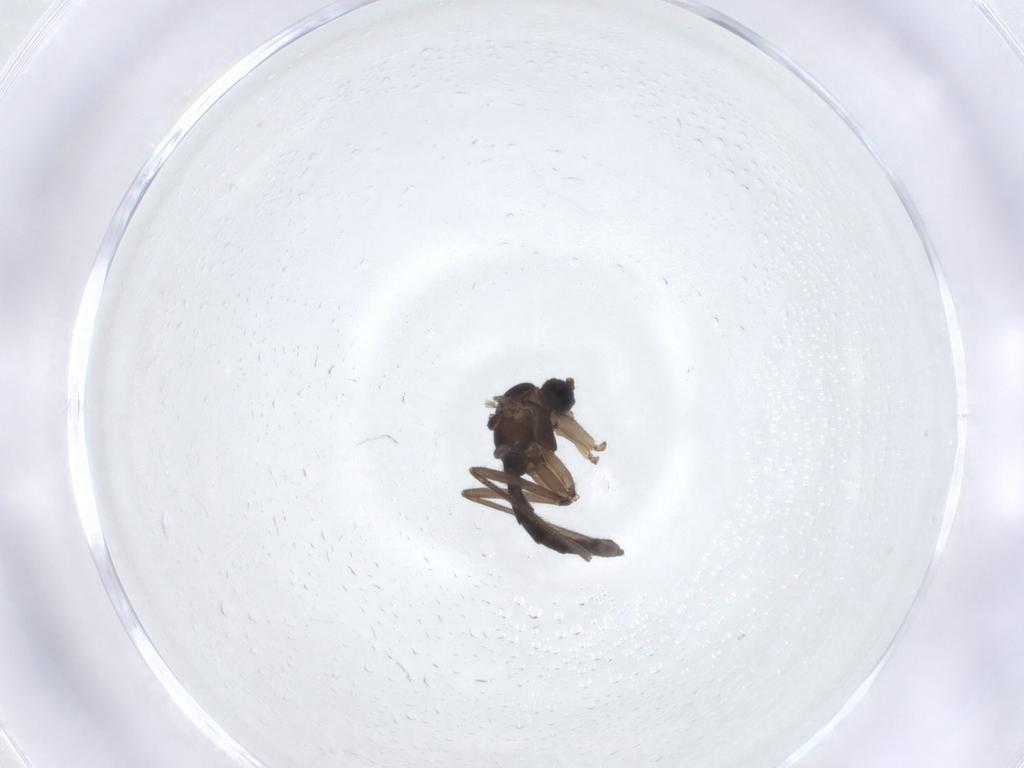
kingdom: Animalia
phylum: Arthropoda
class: Insecta
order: Diptera
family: Sciaridae
